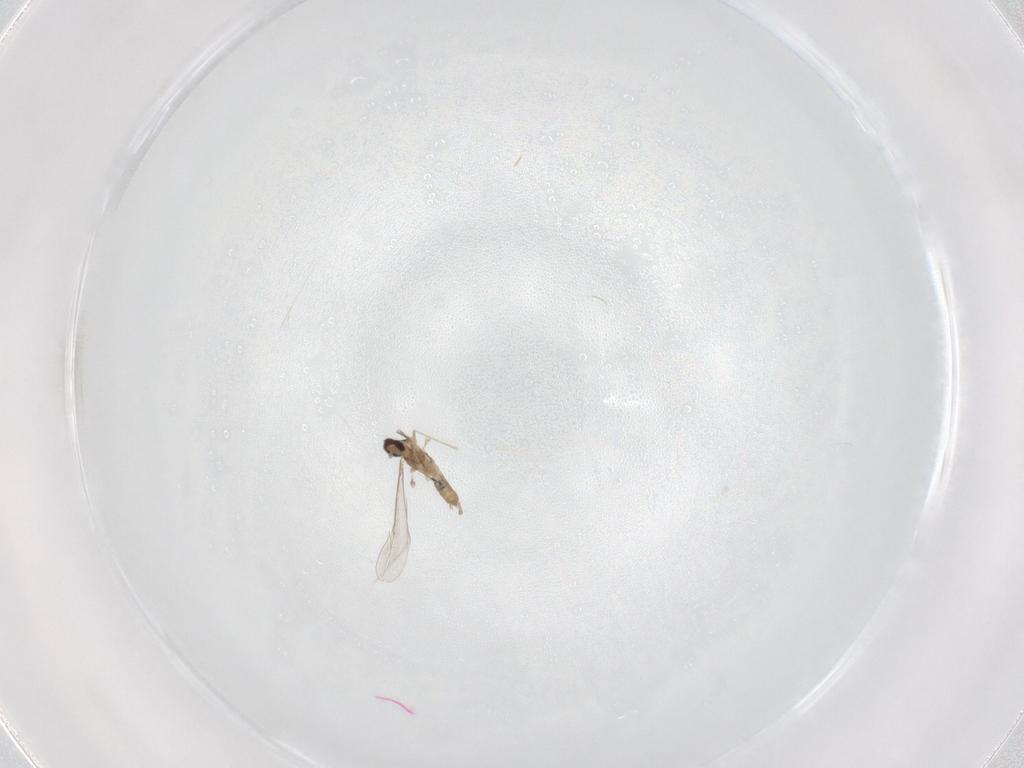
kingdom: Animalia
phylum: Arthropoda
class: Insecta
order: Diptera
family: Cecidomyiidae
